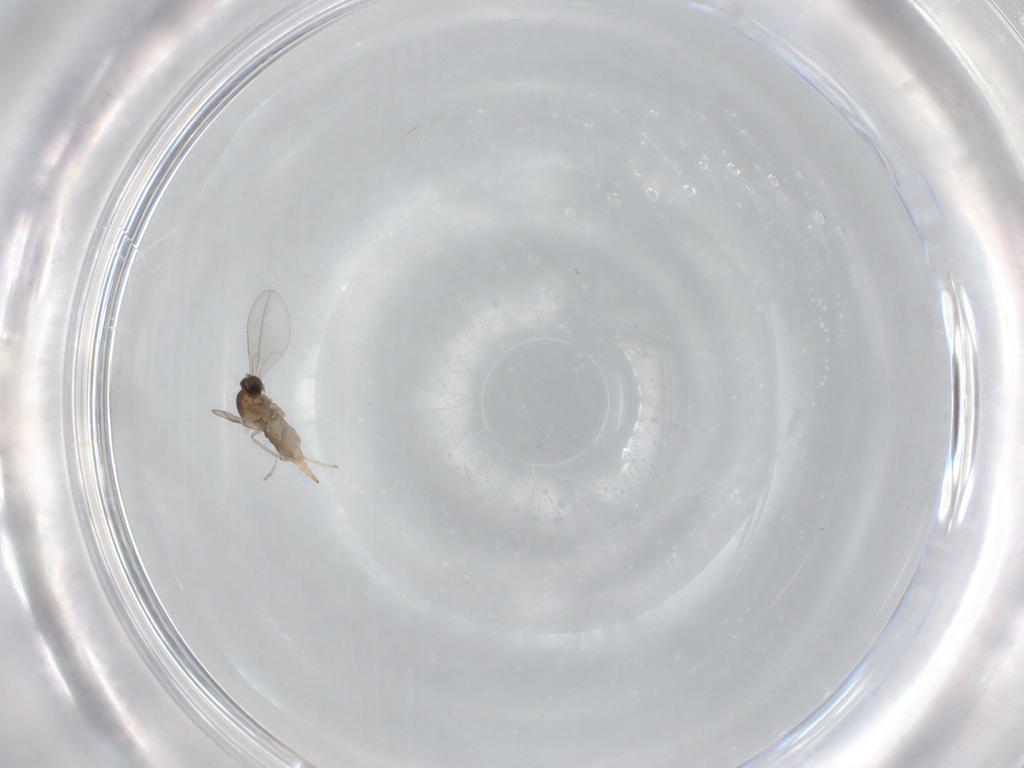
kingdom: Animalia
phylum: Arthropoda
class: Insecta
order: Diptera
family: Cecidomyiidae
